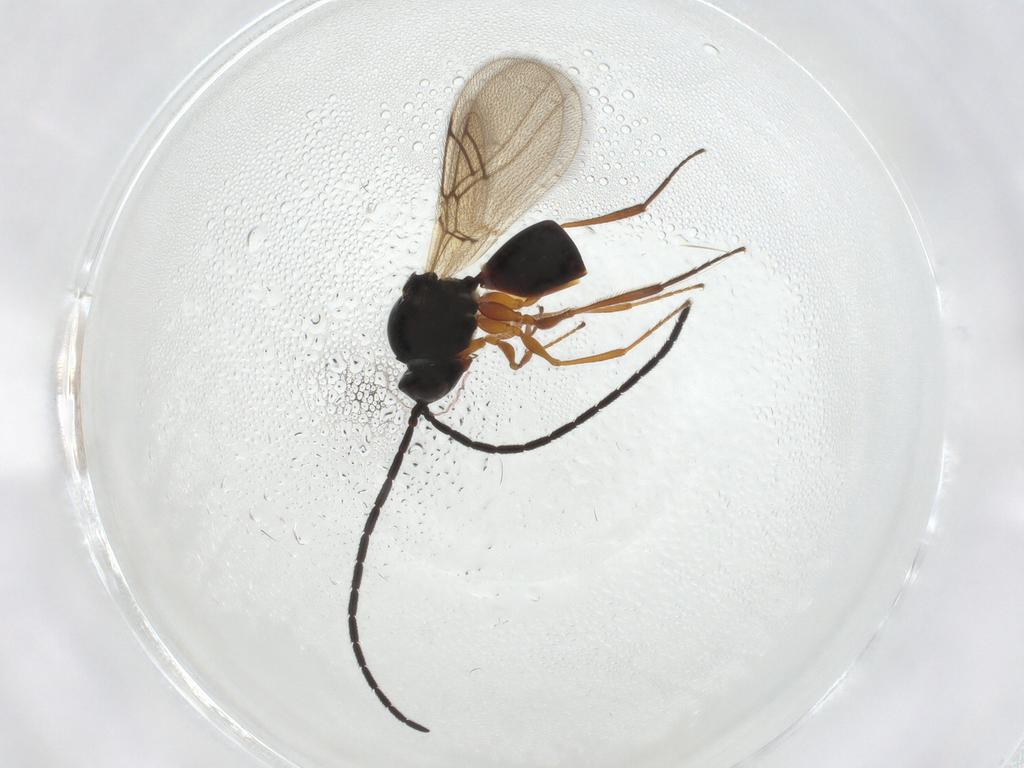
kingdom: Animalia
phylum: Arthropoda
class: Insecta
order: Hymenoptera
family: Figitidae
